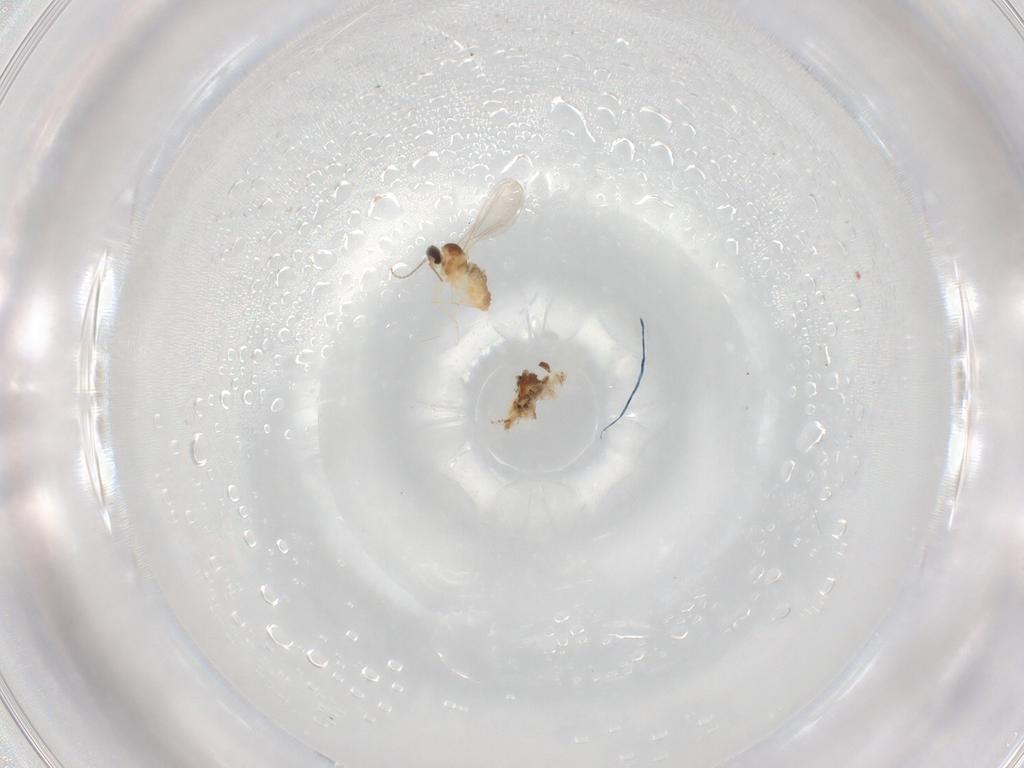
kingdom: Animalia
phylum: Arthropoda
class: Insecta
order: Diptera
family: Cecidomyiidae
